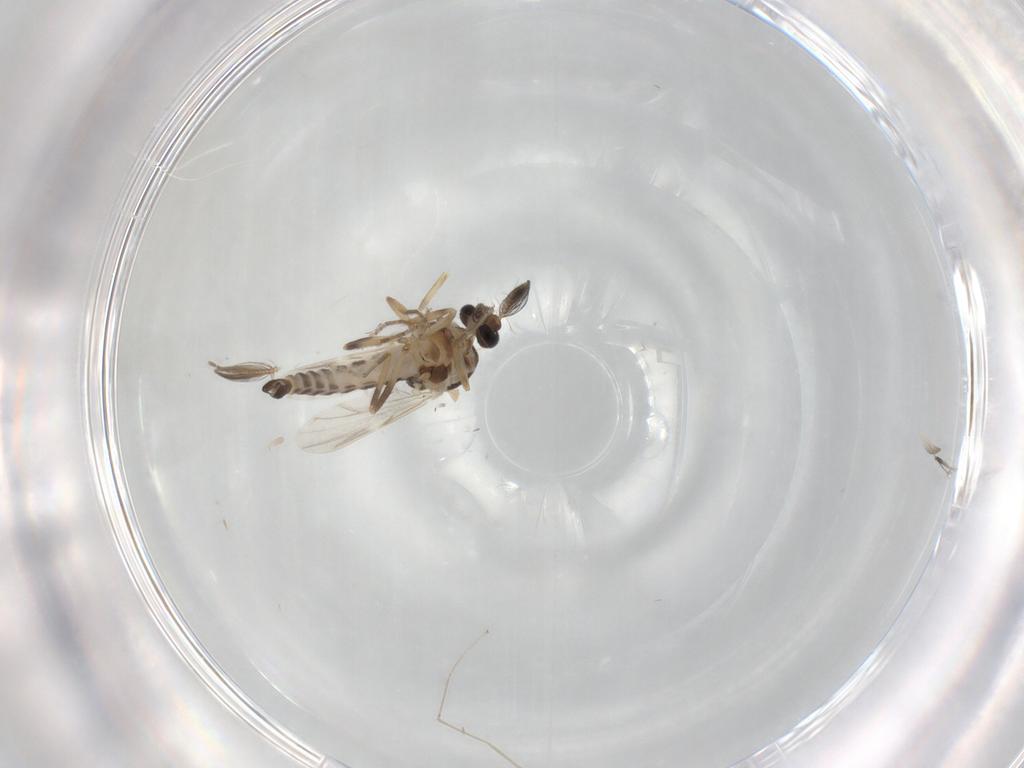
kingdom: Animalia
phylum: Arthropoda
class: Insecta
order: Diptera
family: Ceratopogonidae
